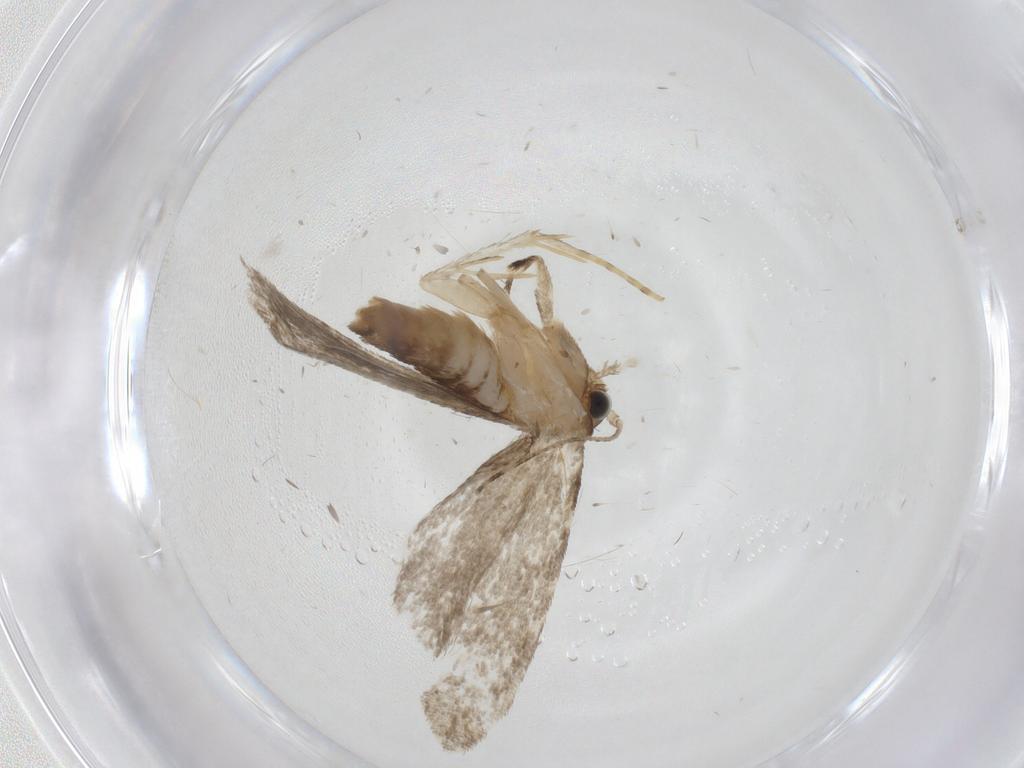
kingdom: Animalia
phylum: Arthropoda
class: Insecta
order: Lepidoptera
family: Tineidae
